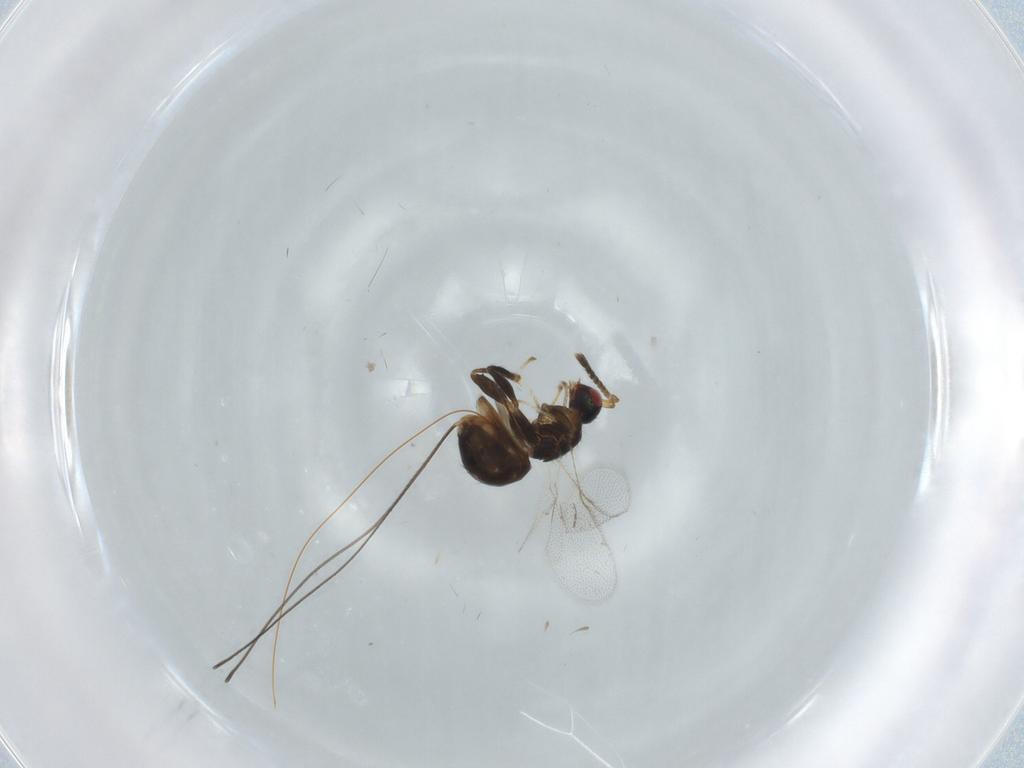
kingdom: Animalia
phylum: Arthropoda
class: Insecta
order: Hymenoptera
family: Torymidae
